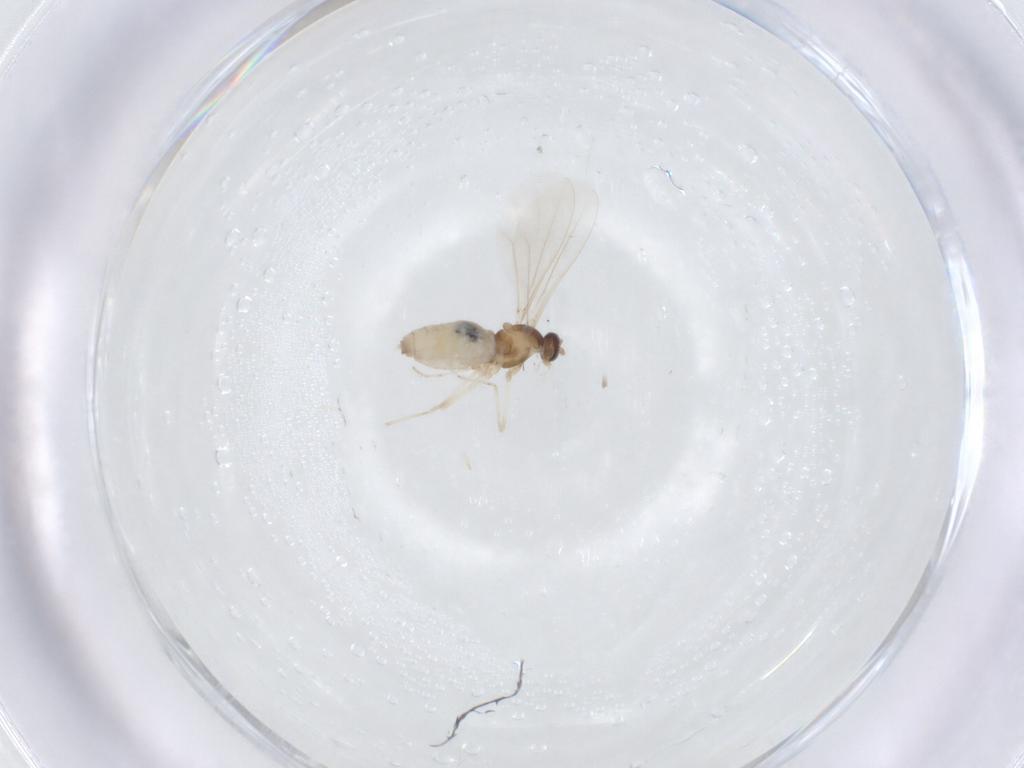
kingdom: Animalia
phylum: Arthropoda
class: Insecta
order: Diptera
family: Cecidomyiidae
